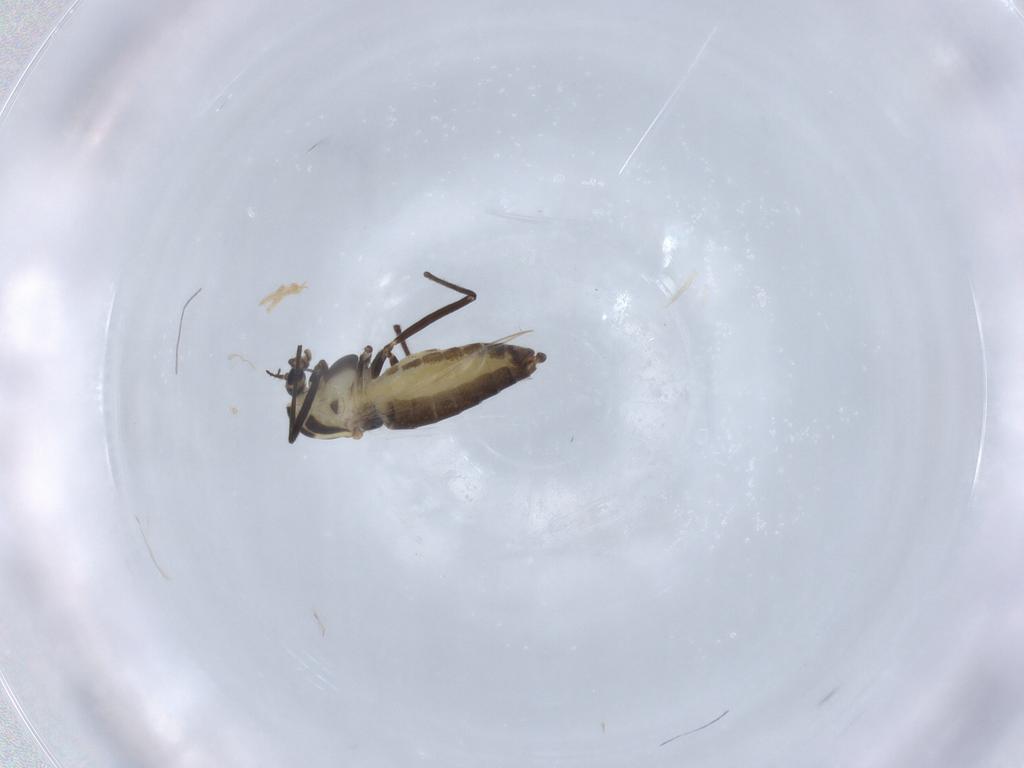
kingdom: Animalia
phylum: Arthropoda
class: Insecta
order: Diptera
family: Chironomidae
